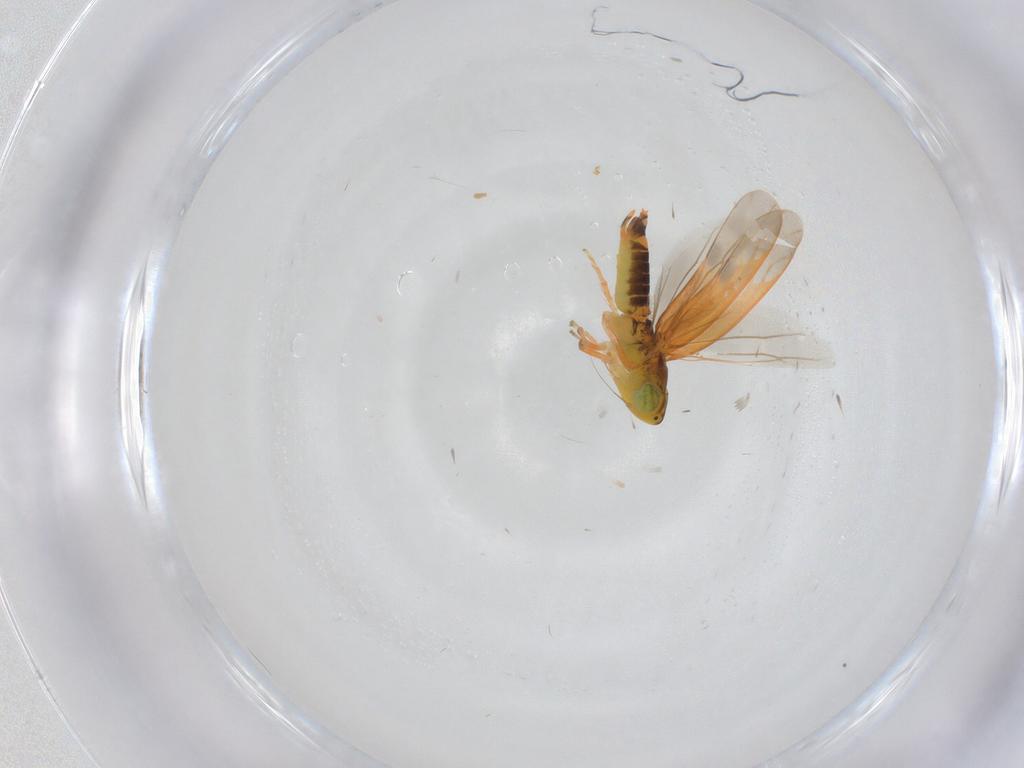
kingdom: Animalia
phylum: Arthropoda
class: Insecta
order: Hemiptera
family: Cicadellidae
